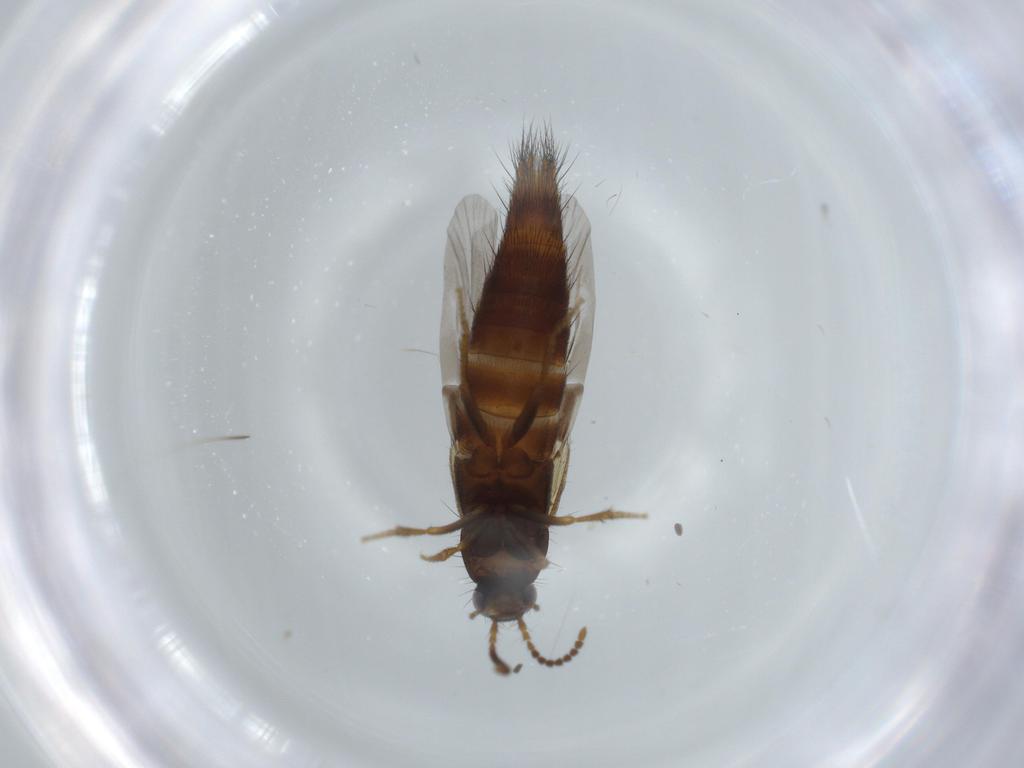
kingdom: Animalia
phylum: Arthropoda
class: Insecta
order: Coleoptera
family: Staphylinidae
